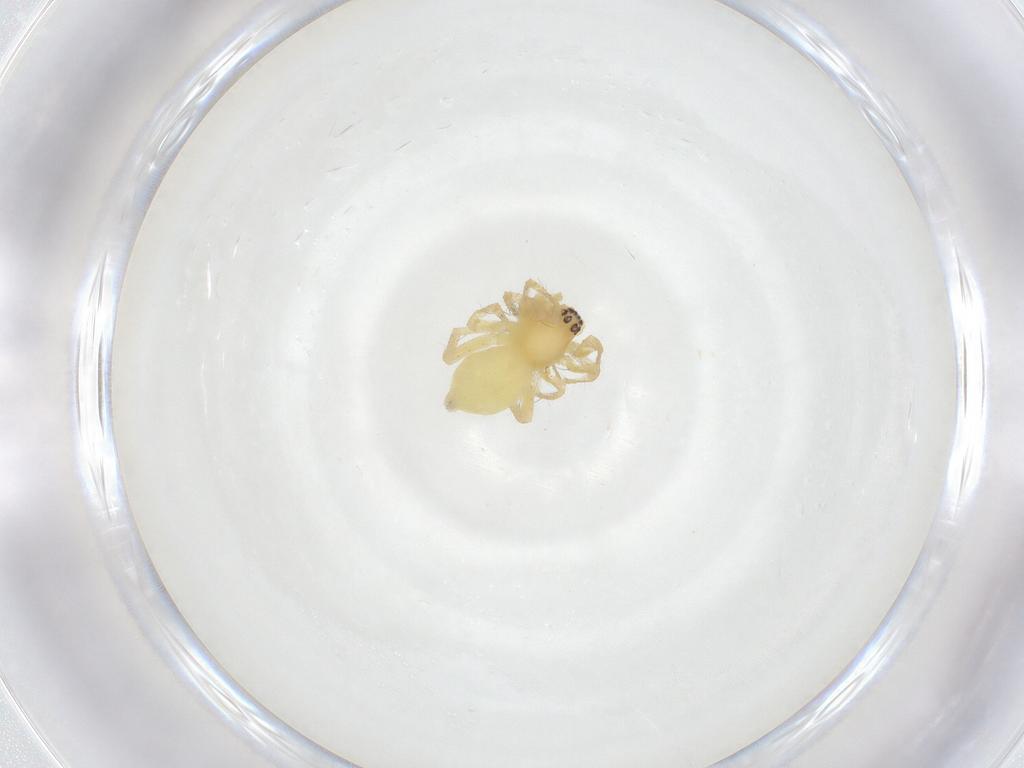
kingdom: Animalia
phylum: Arthropoda
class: Arachnida
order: Araneae
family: Anyphaenidae
